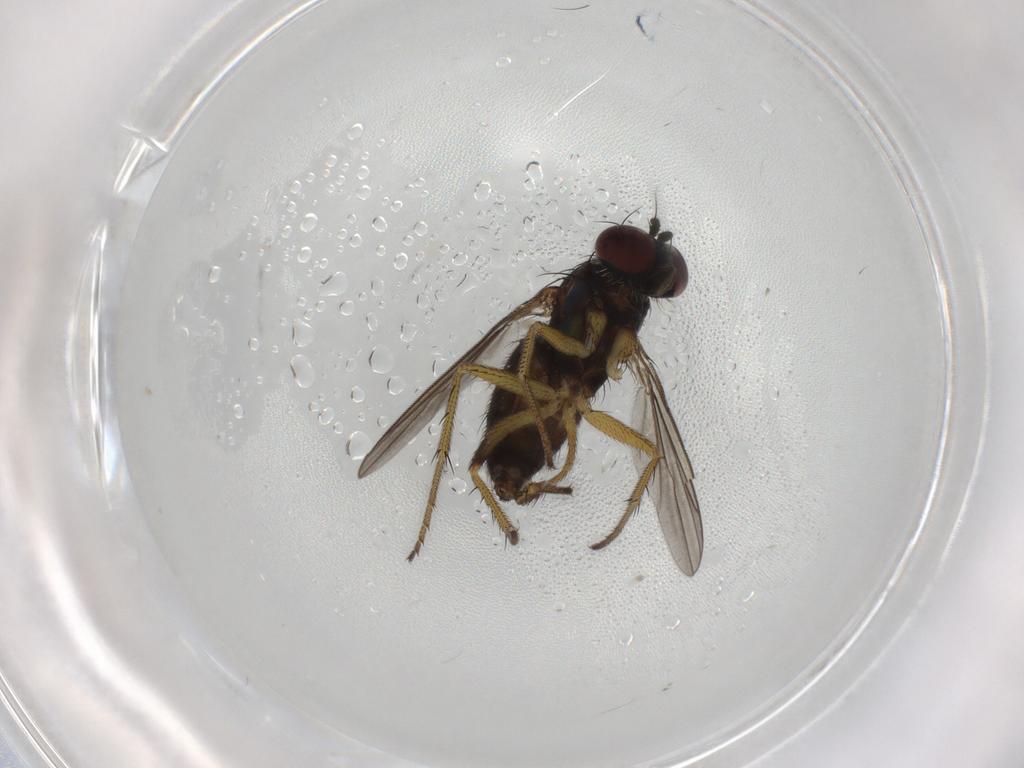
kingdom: Animalia
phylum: Arthropoda
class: Insecta
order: Diptera
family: Dolichopodidae
